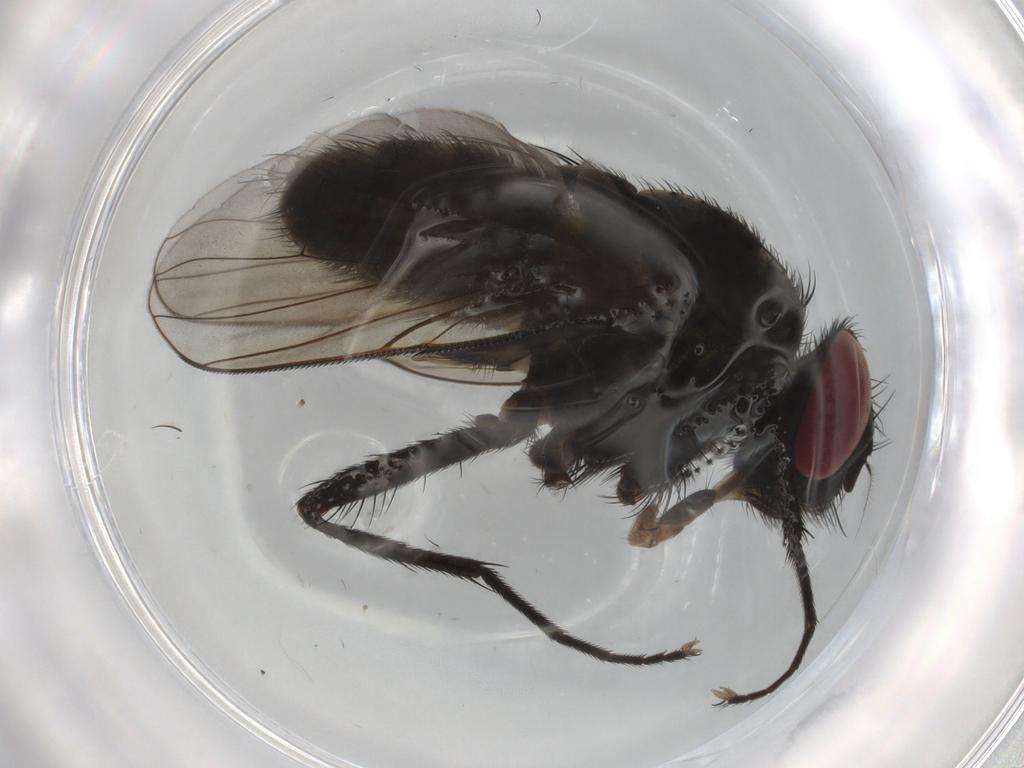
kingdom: Animalia
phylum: Arthropoda
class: Insecta
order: Diptera
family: Muscidae
